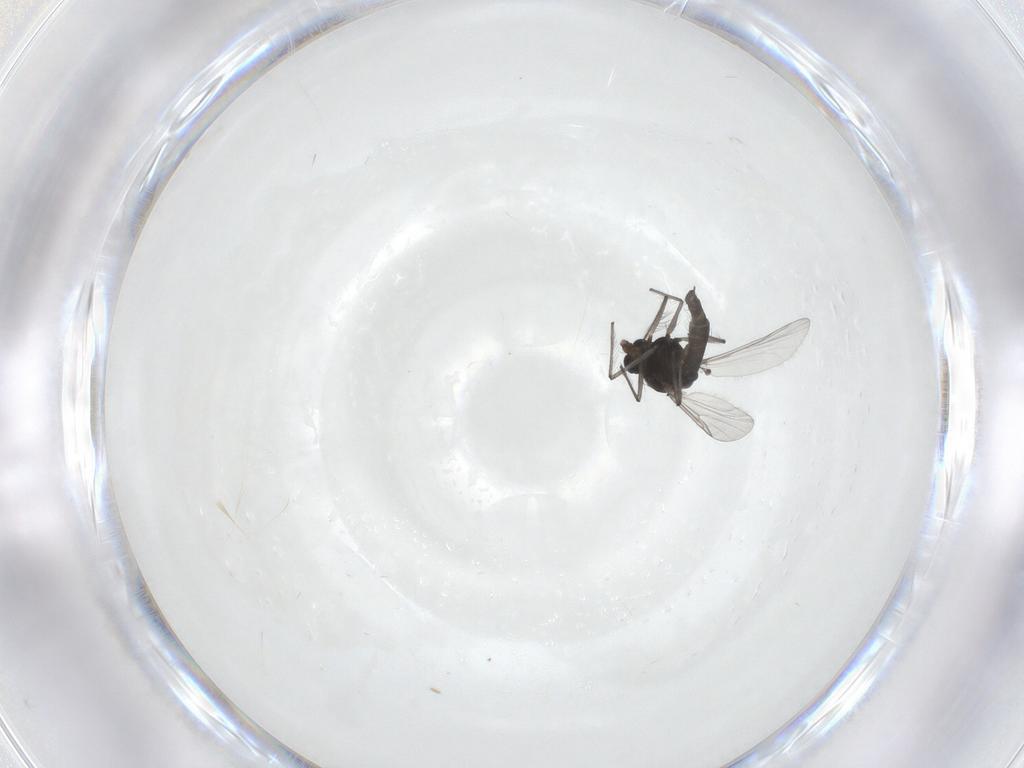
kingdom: Animalia
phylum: Arthropoda
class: Insecta
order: Diptera
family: Chironomidae
